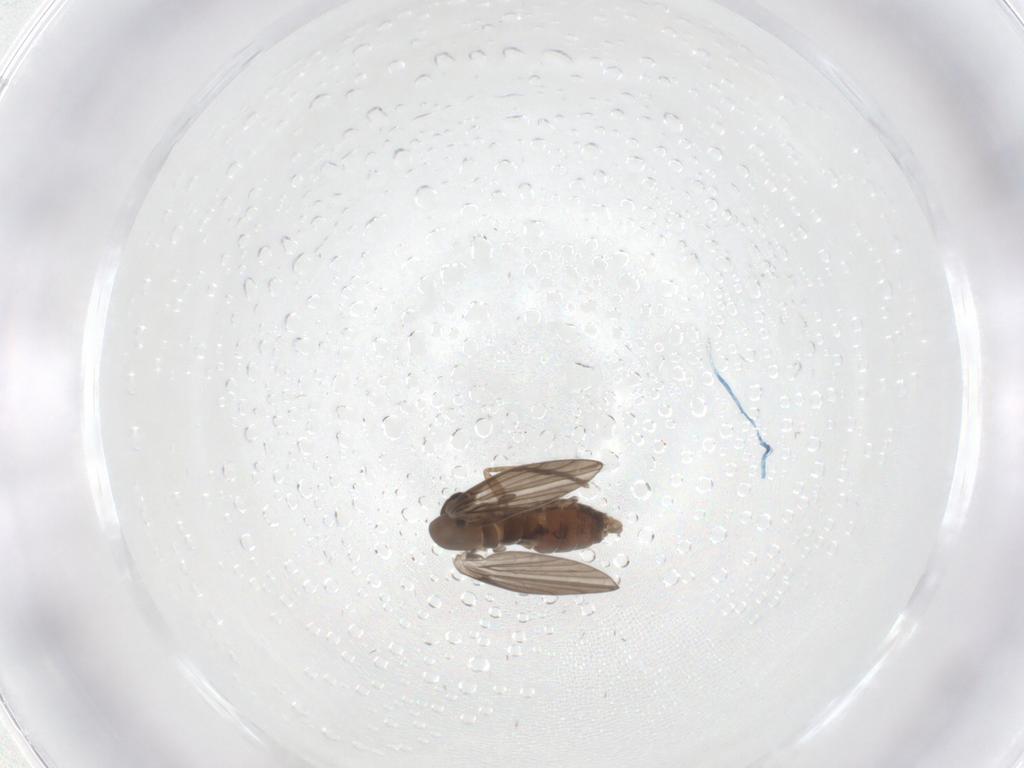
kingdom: Animalia
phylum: Arthropoda
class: Insecta
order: Diptera
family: Psychodidae
